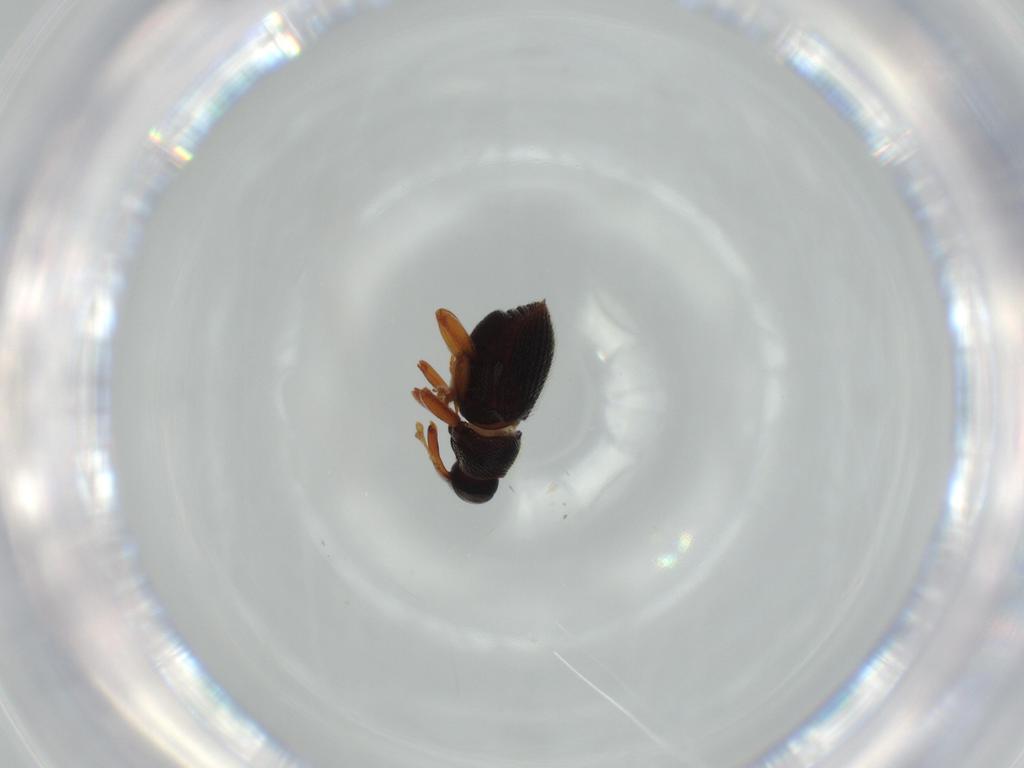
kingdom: Animalia
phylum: Arthropoda
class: Insecta
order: Coleoptera
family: Curculionidae
